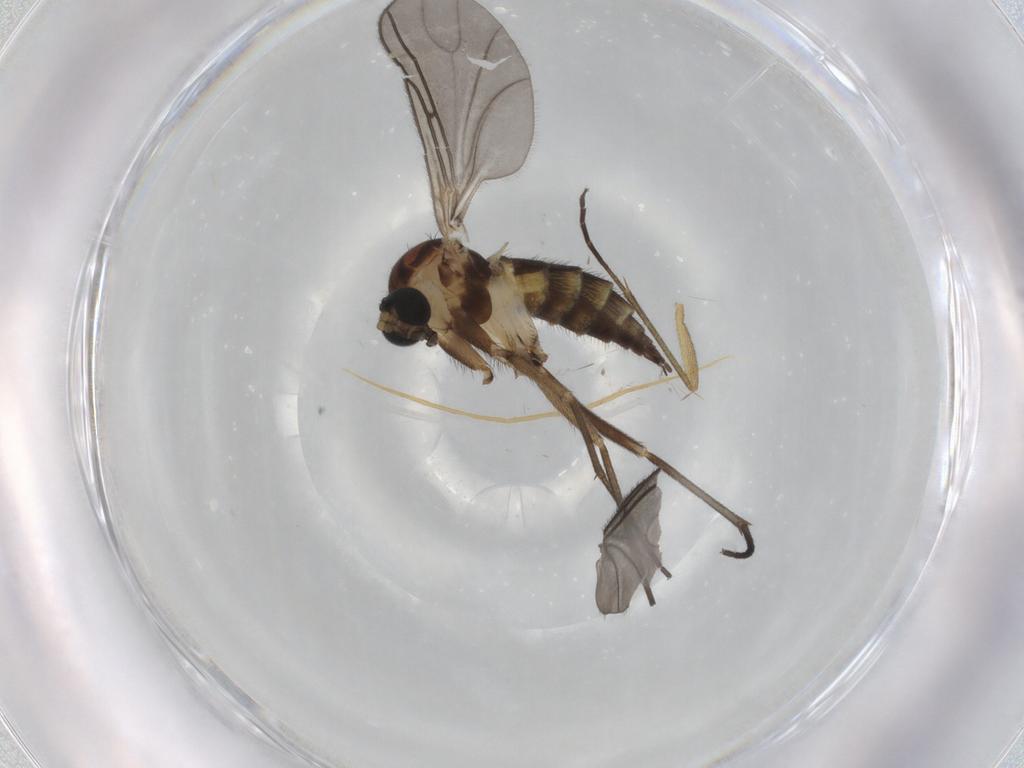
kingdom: Animalia
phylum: Arthropoda
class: Insecta
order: Diptera
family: Sciaridae
